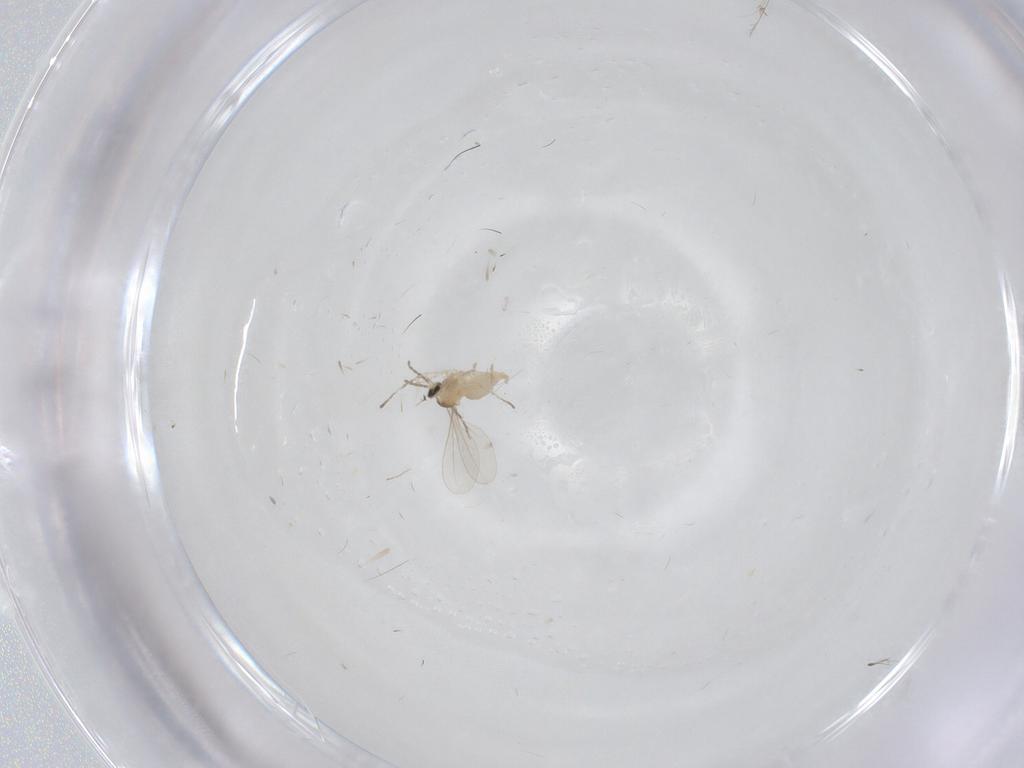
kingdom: Animalia
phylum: Arthropoda
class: Insecta
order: Diptera
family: Chironomidae
